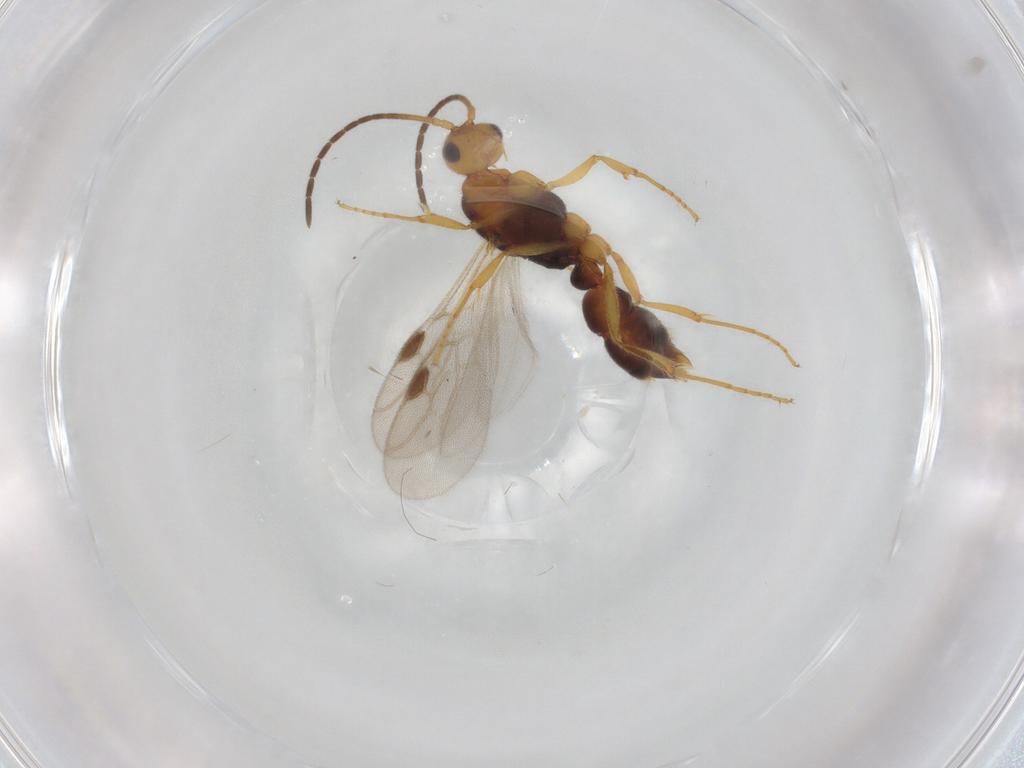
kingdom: Animalia
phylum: Arthropoda
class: Insecta
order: Hymenoptera
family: Formicidae
